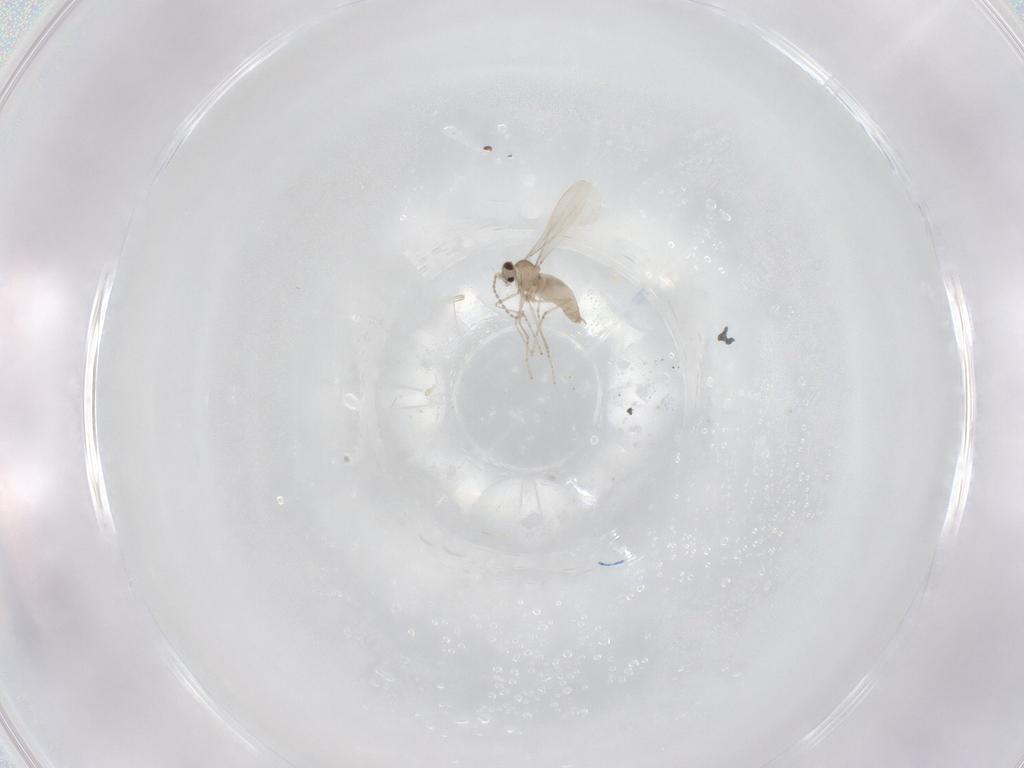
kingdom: Animalia
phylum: Arthropoda
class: Insecta
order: Diptera
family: Cecidomyiidae
